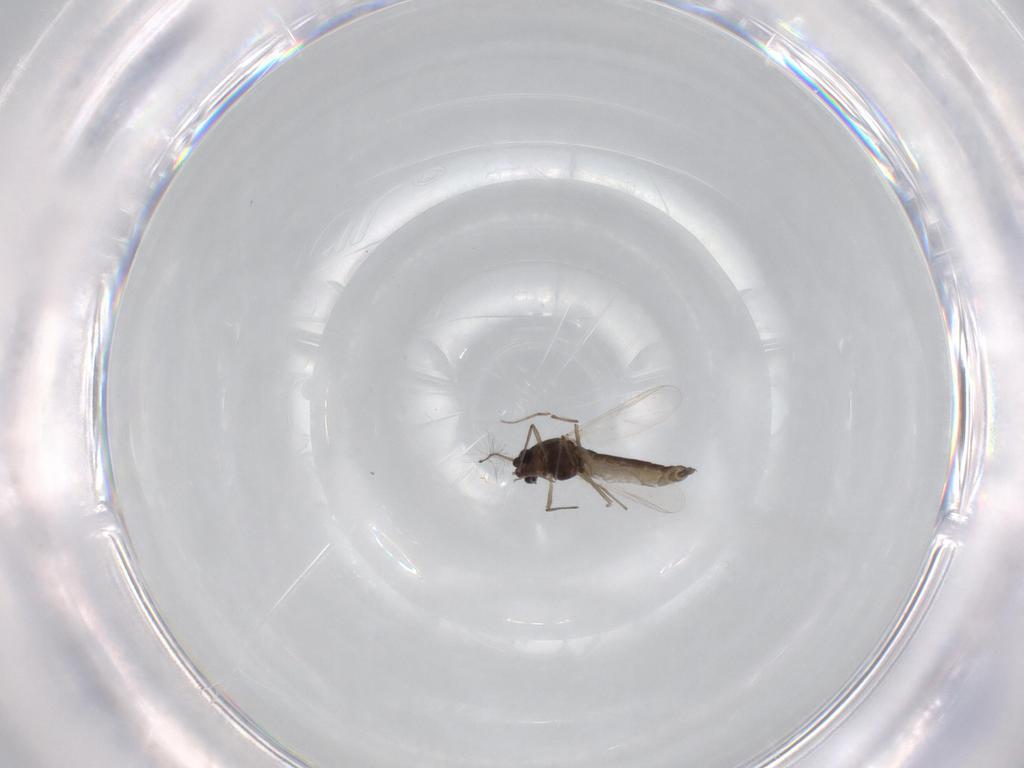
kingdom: Animalia
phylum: Arthropoda
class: Insecta
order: Diptera
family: Chironomidae
